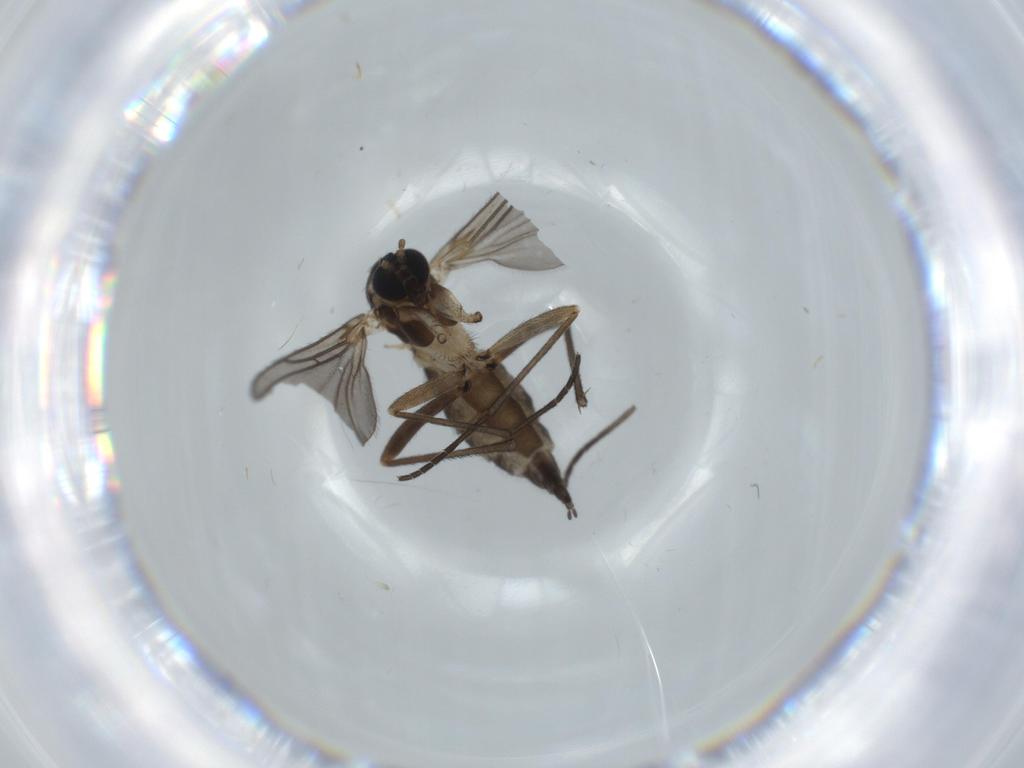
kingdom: Animalia
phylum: Arthropoda
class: Insecta
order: Diptera
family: Sciaridae
